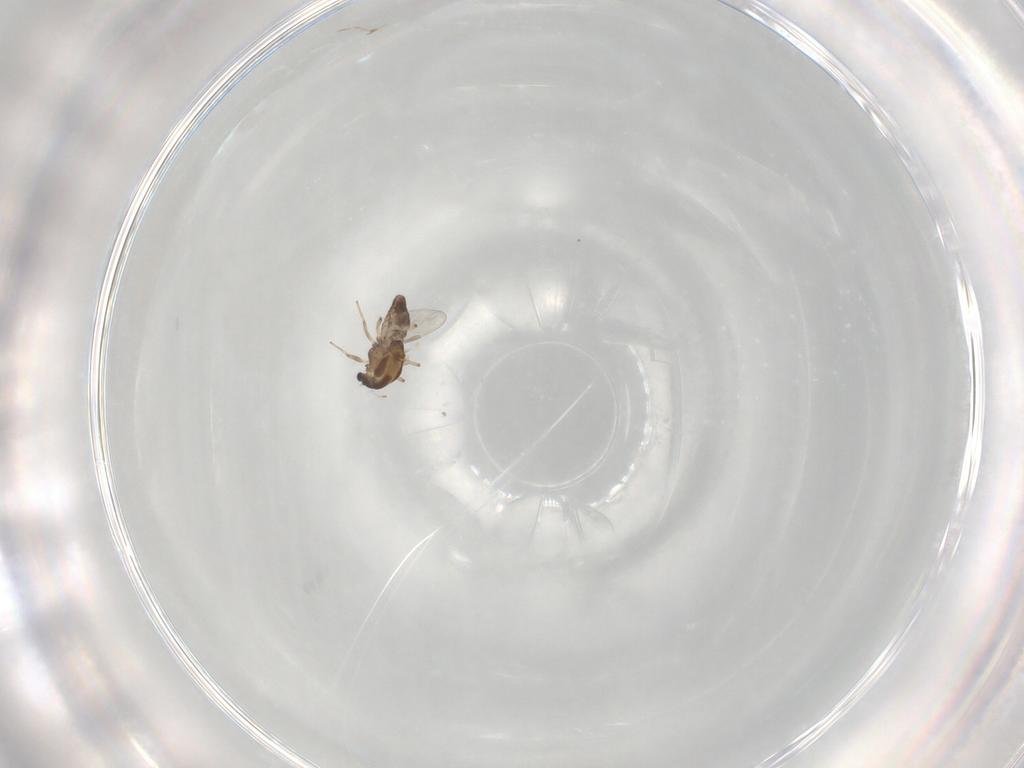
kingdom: Animalia
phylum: Arthropoda
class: Insecta
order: Diptera
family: Chironomidae
